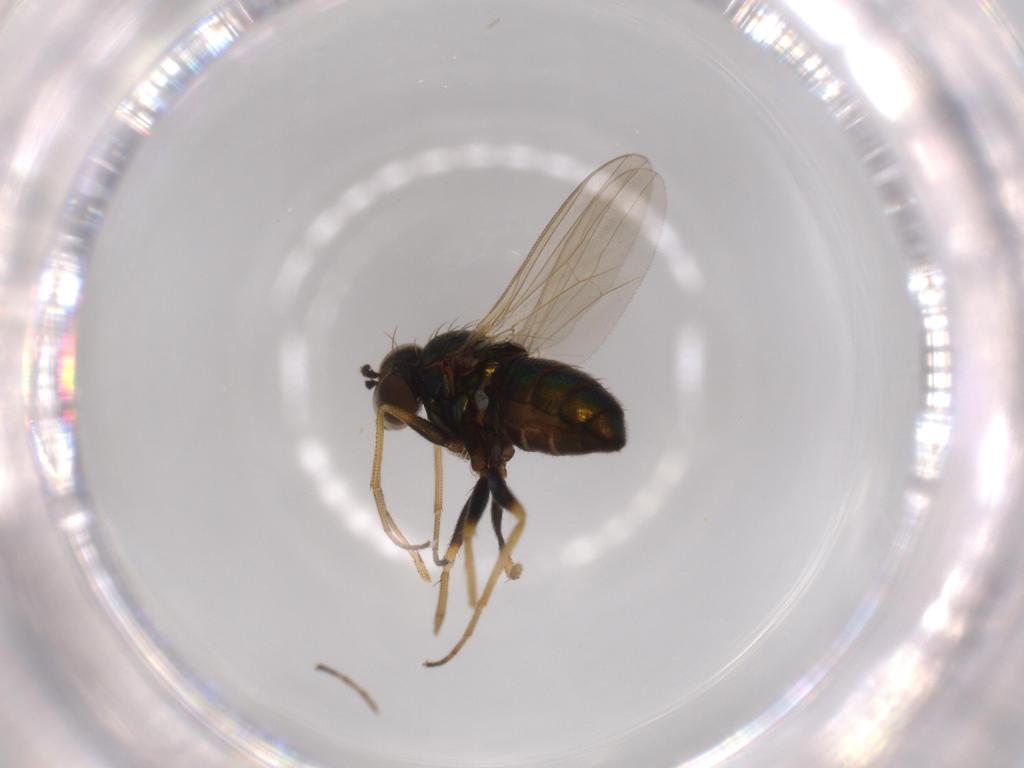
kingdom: Animalia
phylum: Arthropoda
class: Insecta
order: Diptera
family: Dolichopodidae
